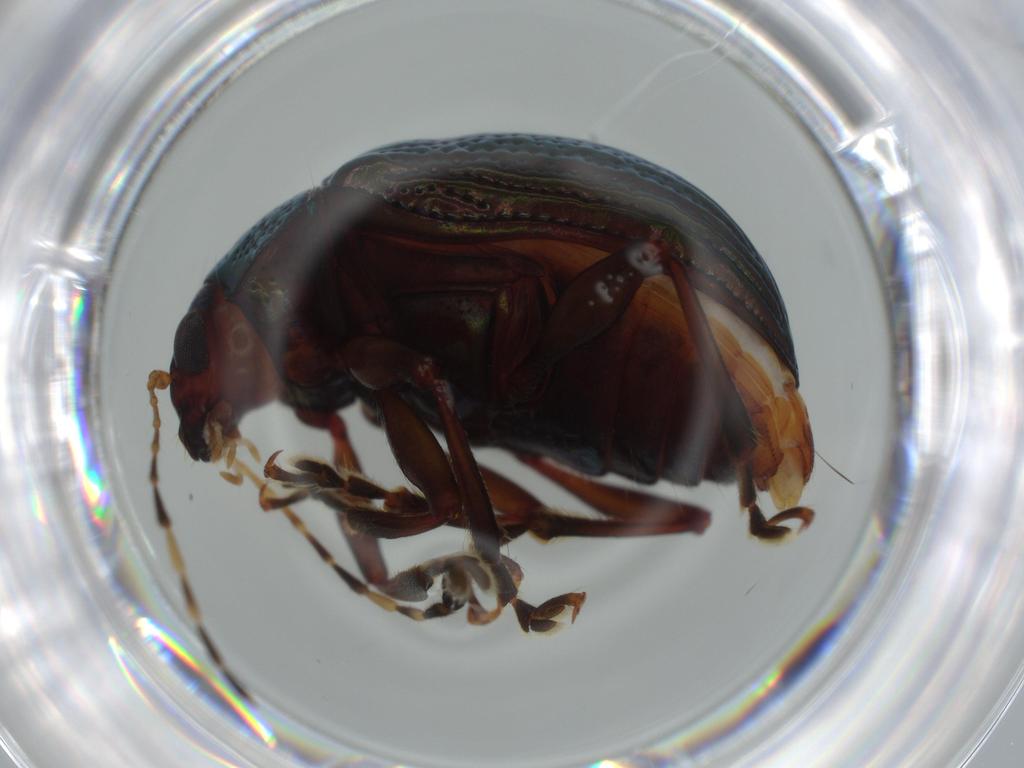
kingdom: Animalia
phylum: Arthropoda
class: Insecta
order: Coleoptera
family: Chrysomelidae
